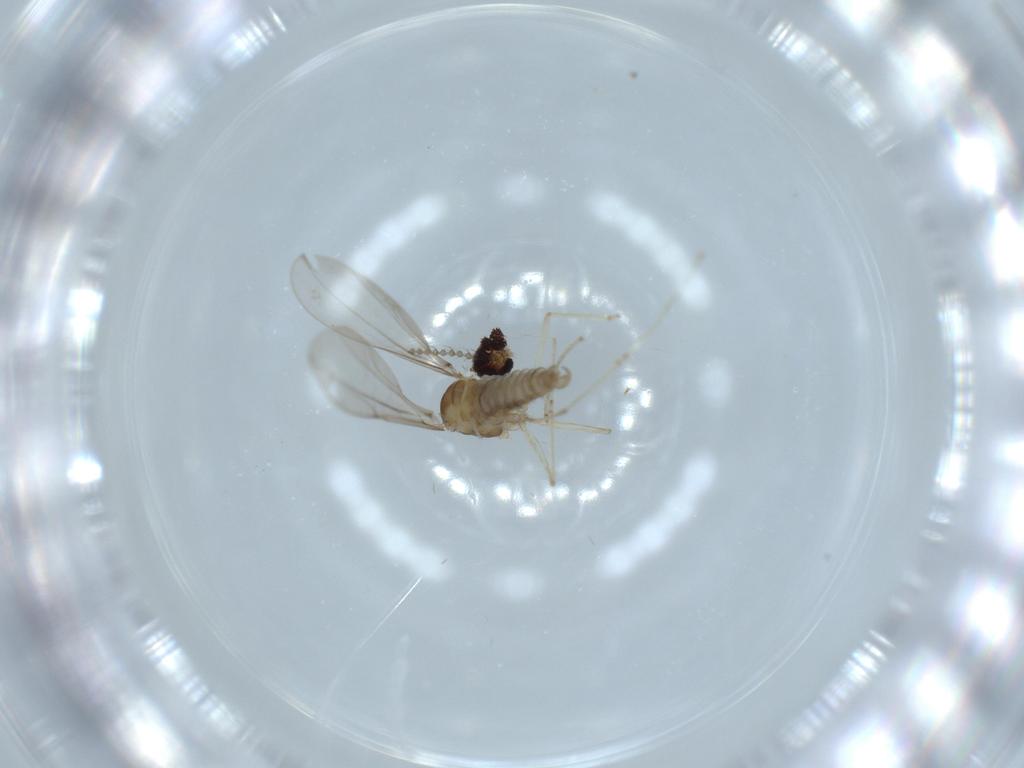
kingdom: Animalia
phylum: Arthropoda
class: Insecta
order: Diptera
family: Cecidomyiidae
